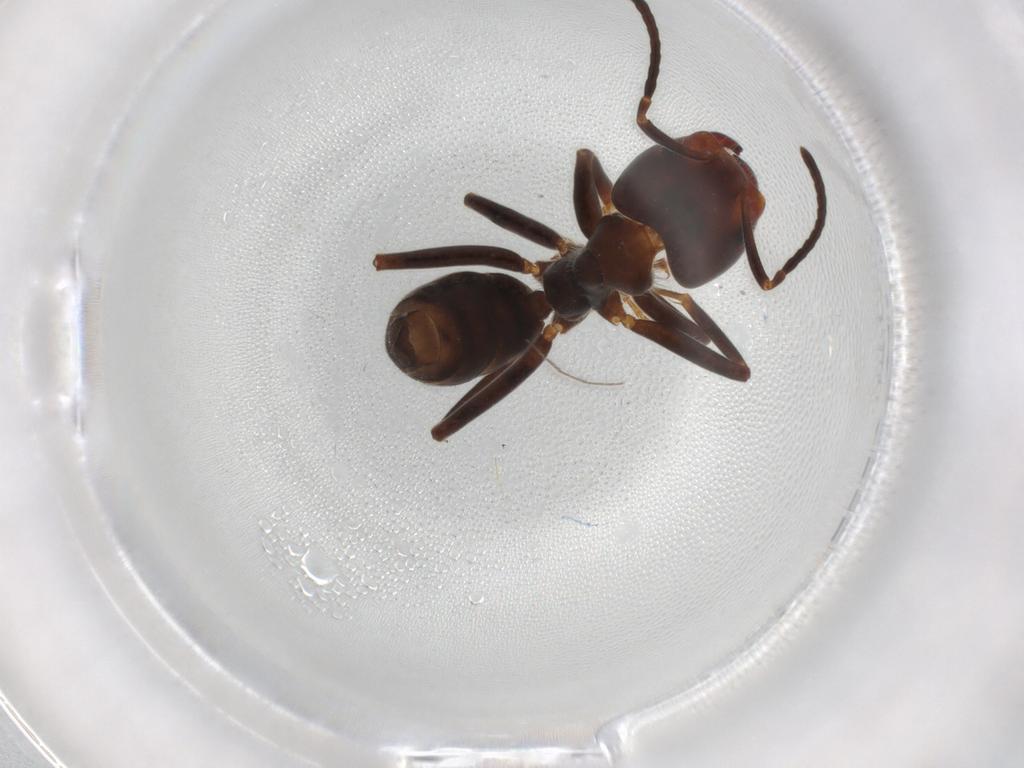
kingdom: Animalia
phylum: Arthropoda
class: Insecta
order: Hymenoptera
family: Formicidae
